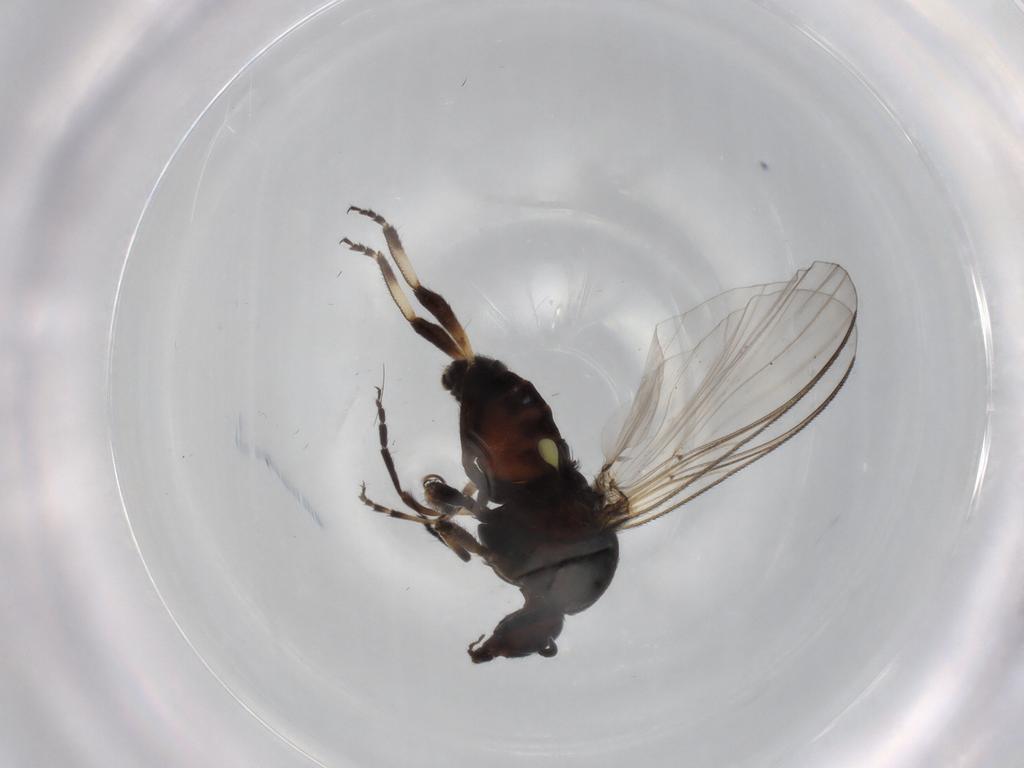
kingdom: Animalia
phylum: Arthropoda
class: Insecta
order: Diptera
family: Simuliidae
